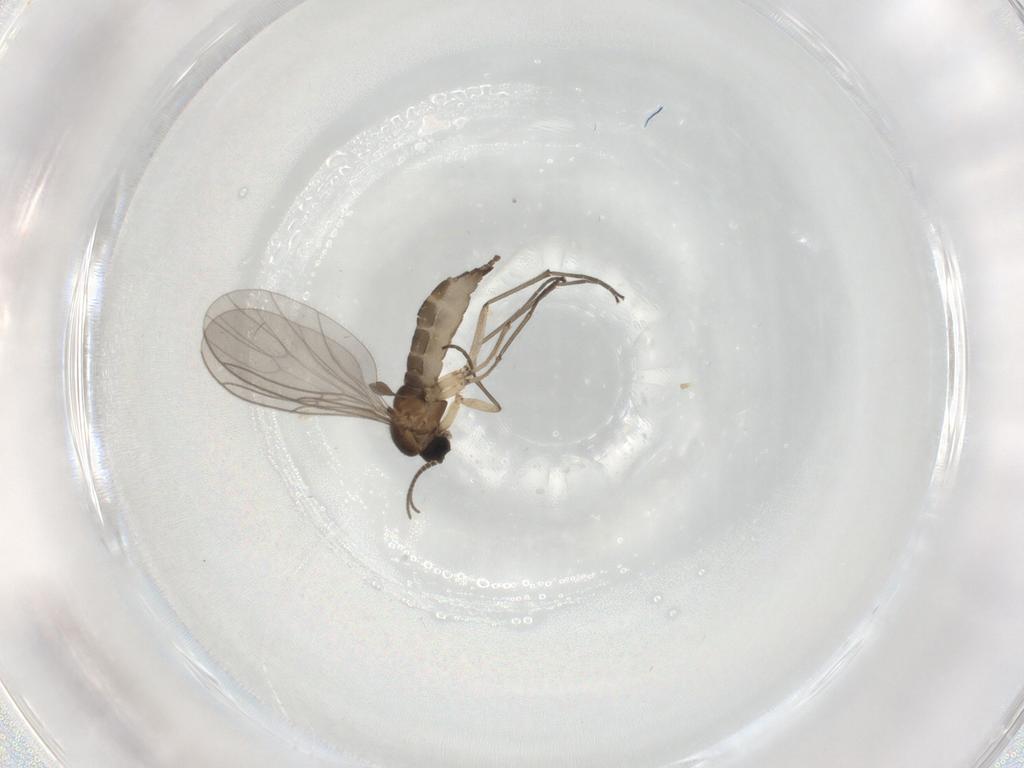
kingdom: Animalia
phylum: Arthropoda
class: Insecta
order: Diptera
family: Sciaridae
